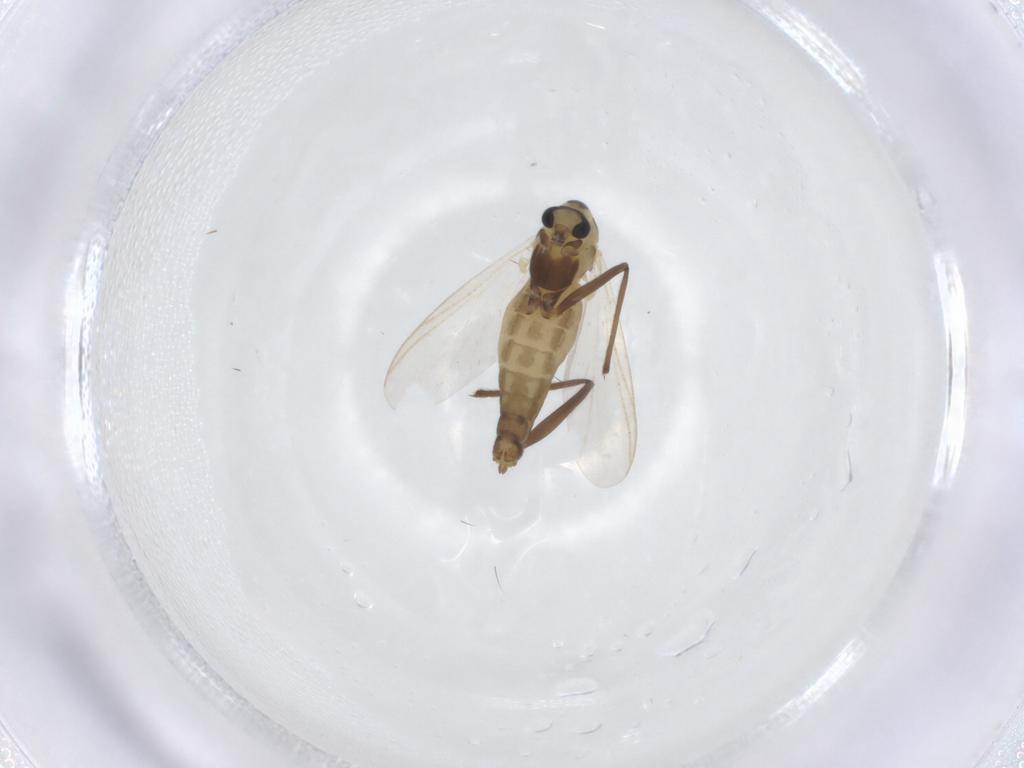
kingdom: Animalia
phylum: Arthropoda
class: Insecta
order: Diptera
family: Chironomidae
